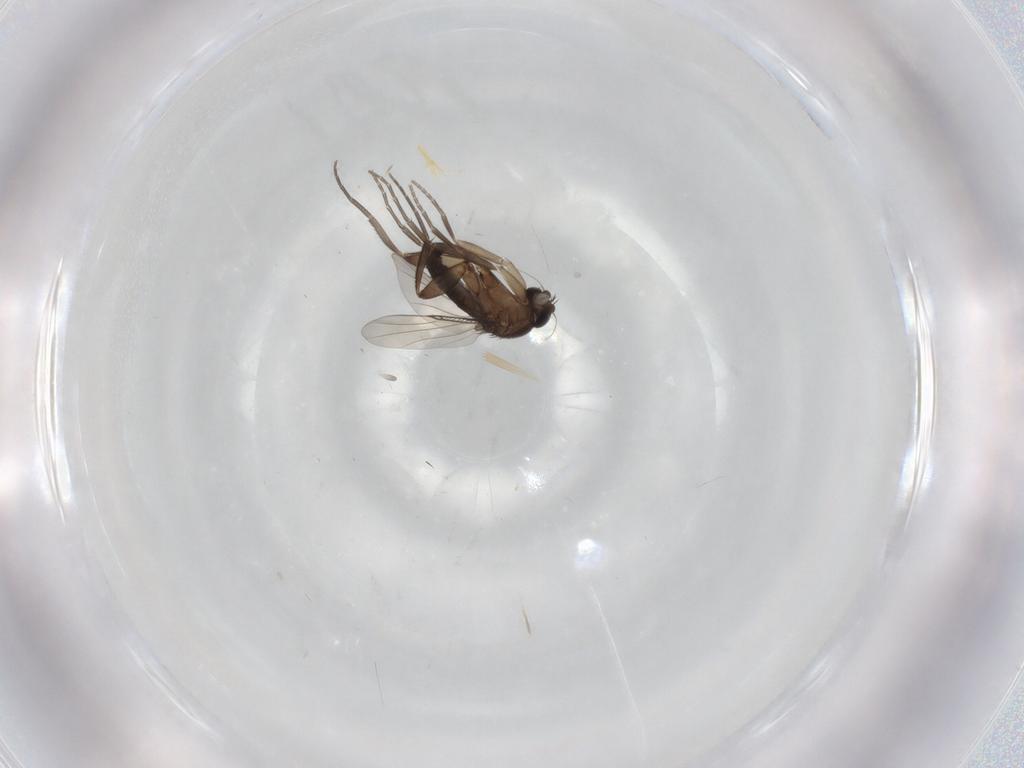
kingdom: Animalia
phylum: Arthropoda
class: Insecta
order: Diptera
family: Phoridae
